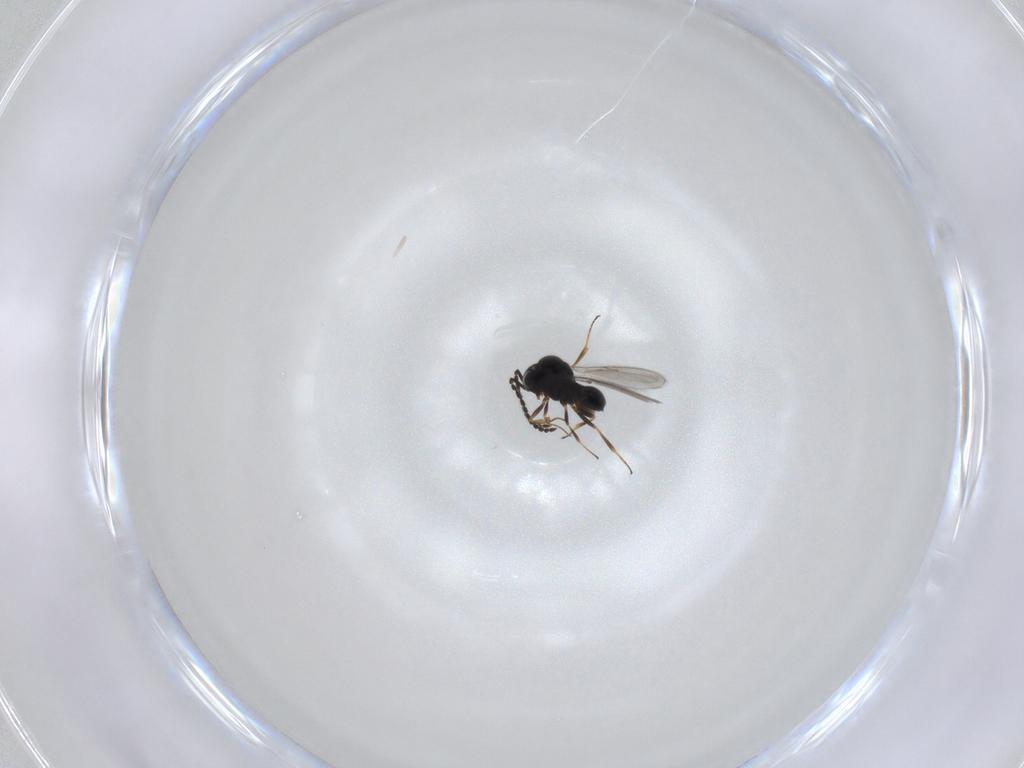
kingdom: Animalia
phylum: Arthropoda
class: Insecta
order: Hymenoptera
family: Scelionidae
